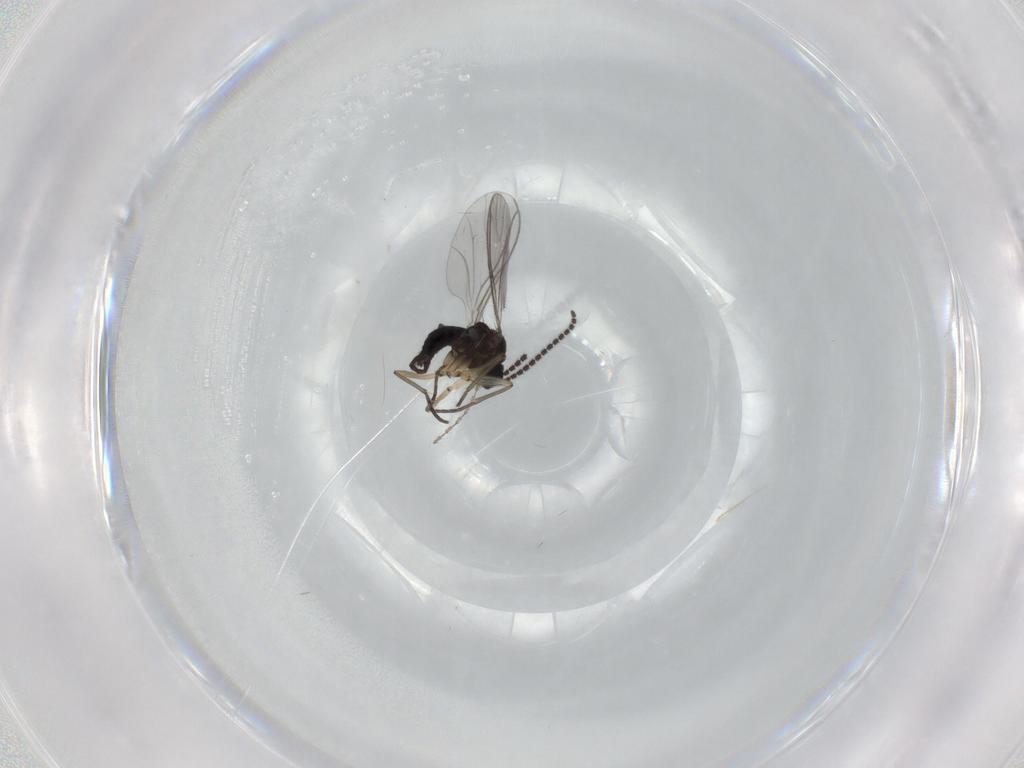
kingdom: Animalia
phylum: Arthropoda
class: Insecta
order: Diptera
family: Sciaridae
